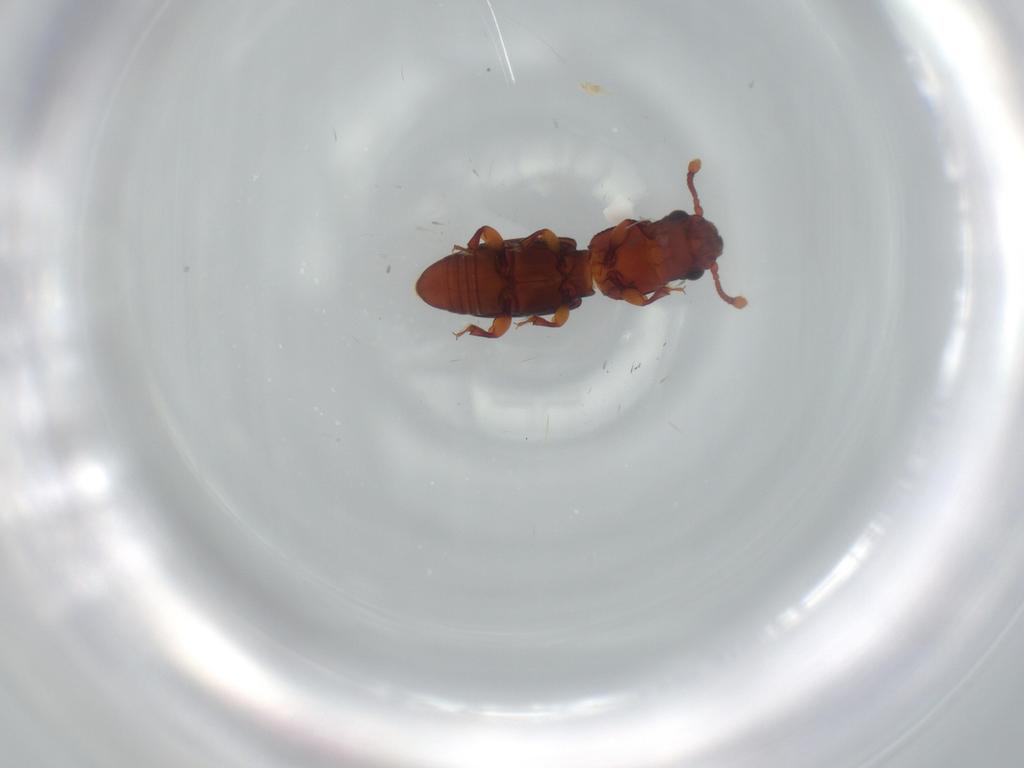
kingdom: Animalia
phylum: Arthropoda
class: Insecta
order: Coleoptera
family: Monotomidae
